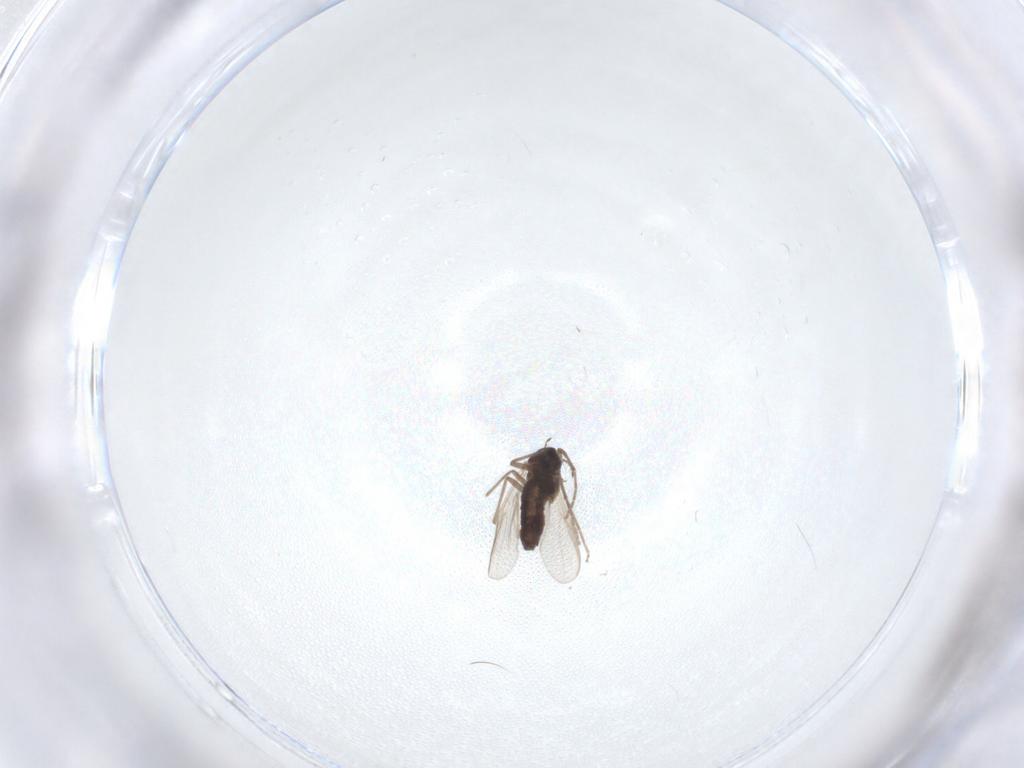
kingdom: Animalia
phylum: Arthropoda
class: Insecta
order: Diptera
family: Chironomidae
